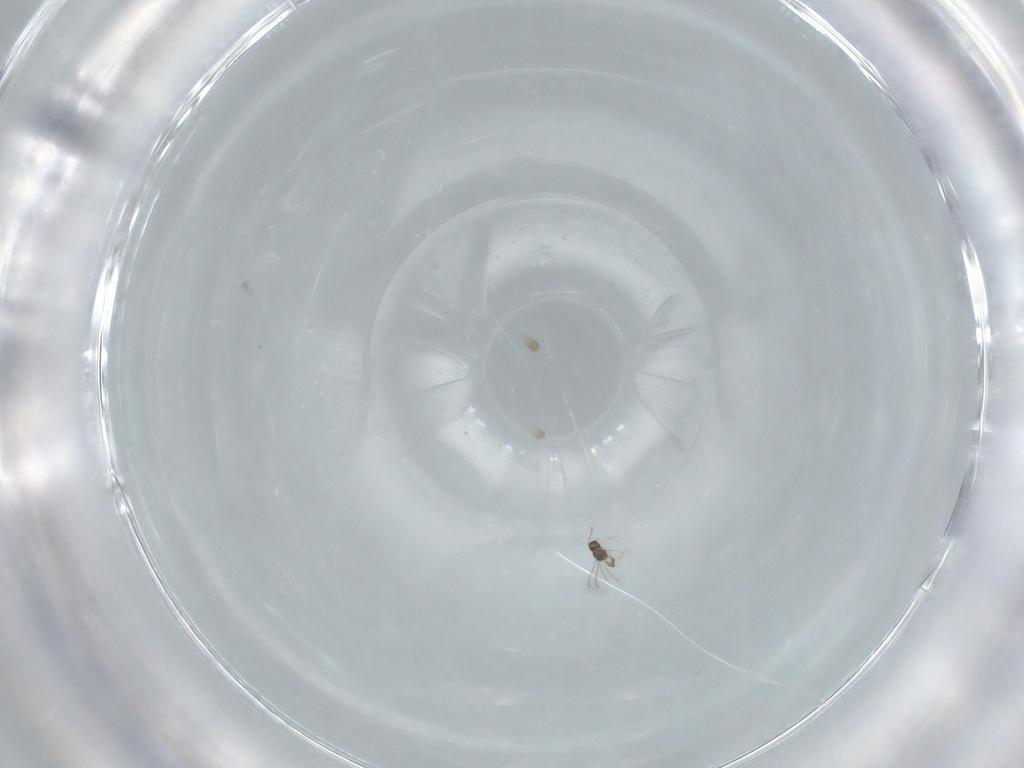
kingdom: Animalia
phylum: Arthropoda
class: Insecta
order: Hymenoptera
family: Mymaridae
